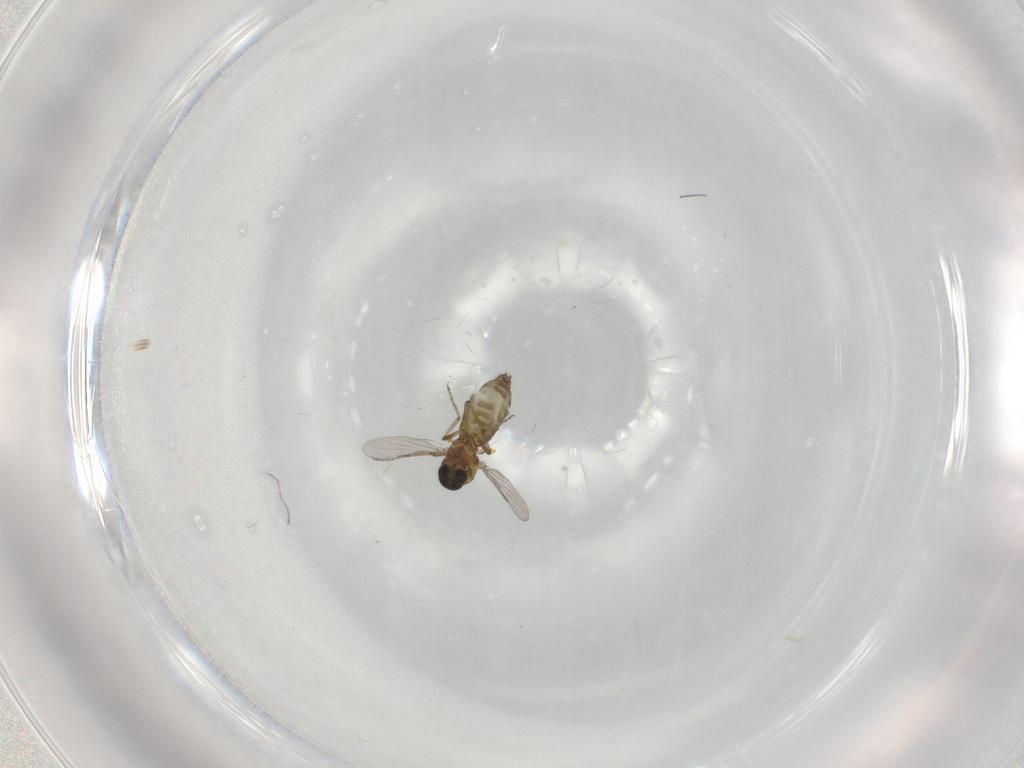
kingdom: Animalia
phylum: Arthropoda
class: Insecta
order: Diptera
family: Ceratopogonidae
